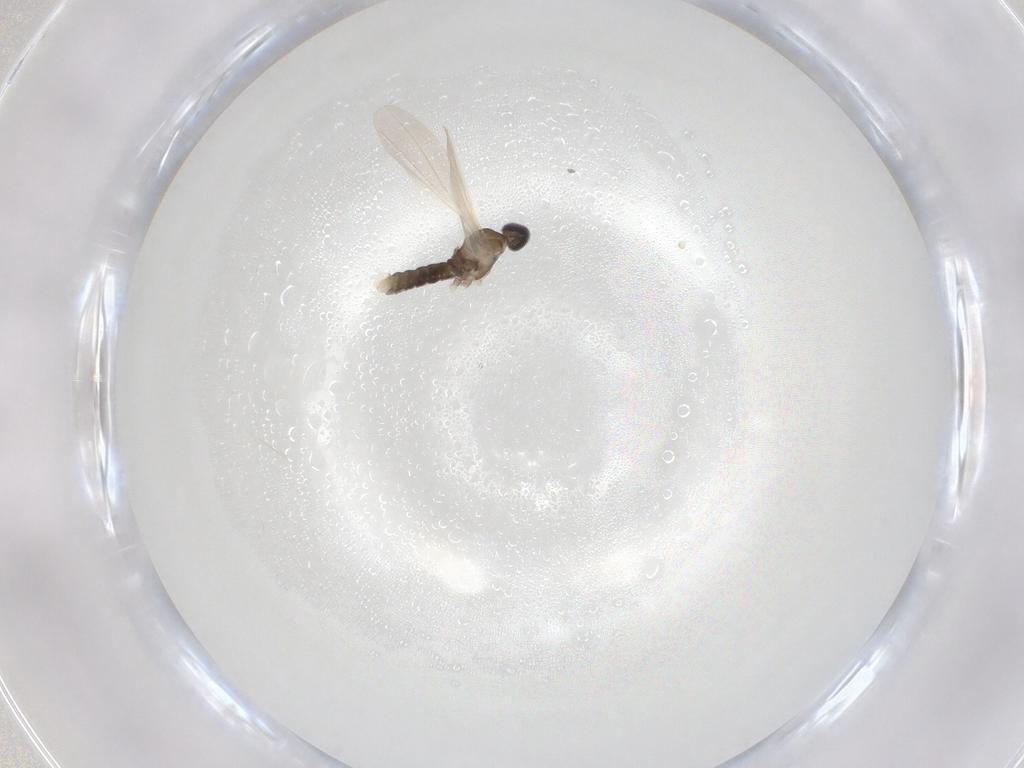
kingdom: Animalia
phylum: Arthropoda
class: Insecta
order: Diptera
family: Cecidomyiidae
